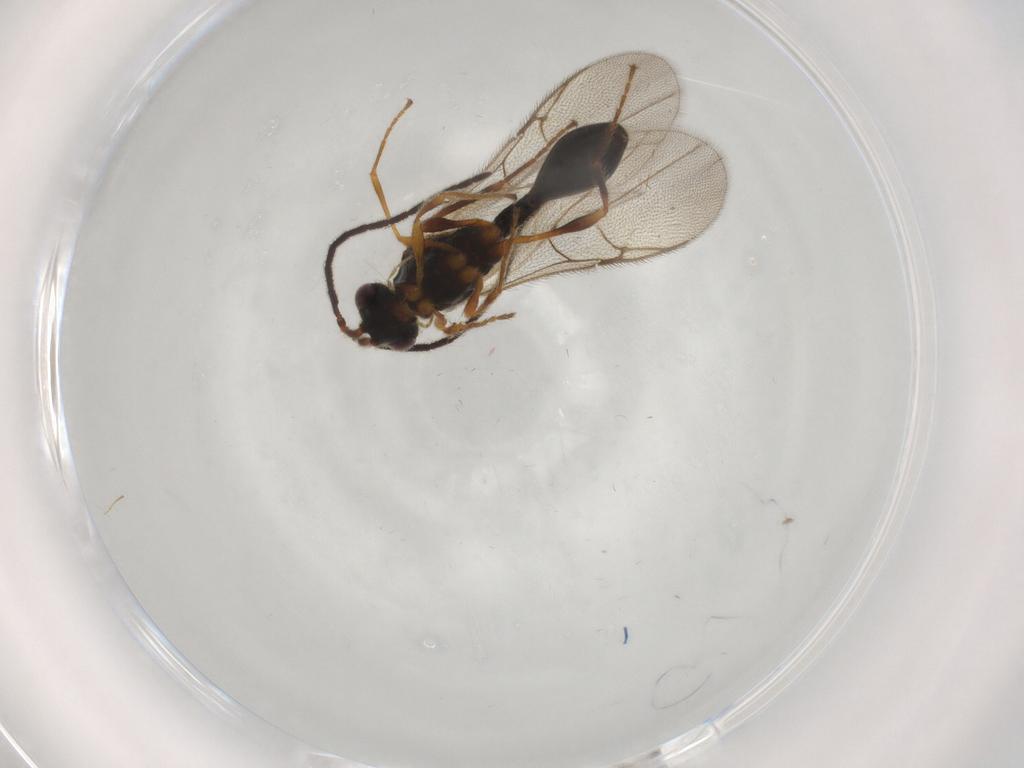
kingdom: Animalia
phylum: Arthropoda
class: Insecta
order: Hymenoptera
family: Diapriidae
